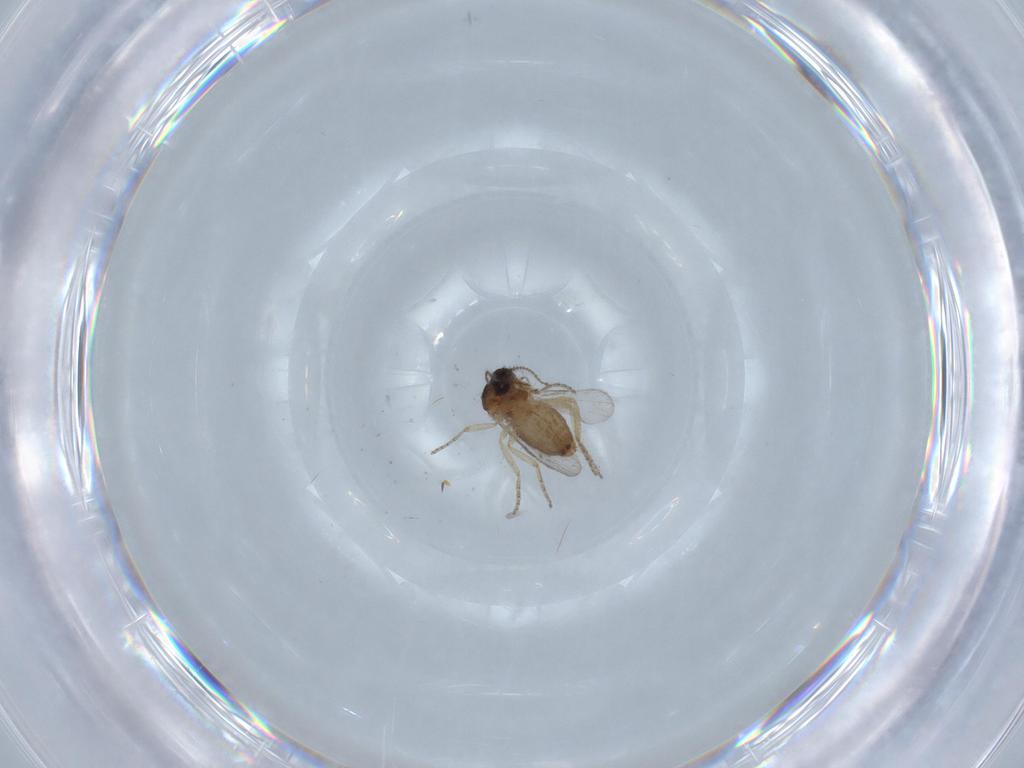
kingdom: Animalia
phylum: Arthropoda
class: Insecta
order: Diptera
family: Ceratopogonidae
